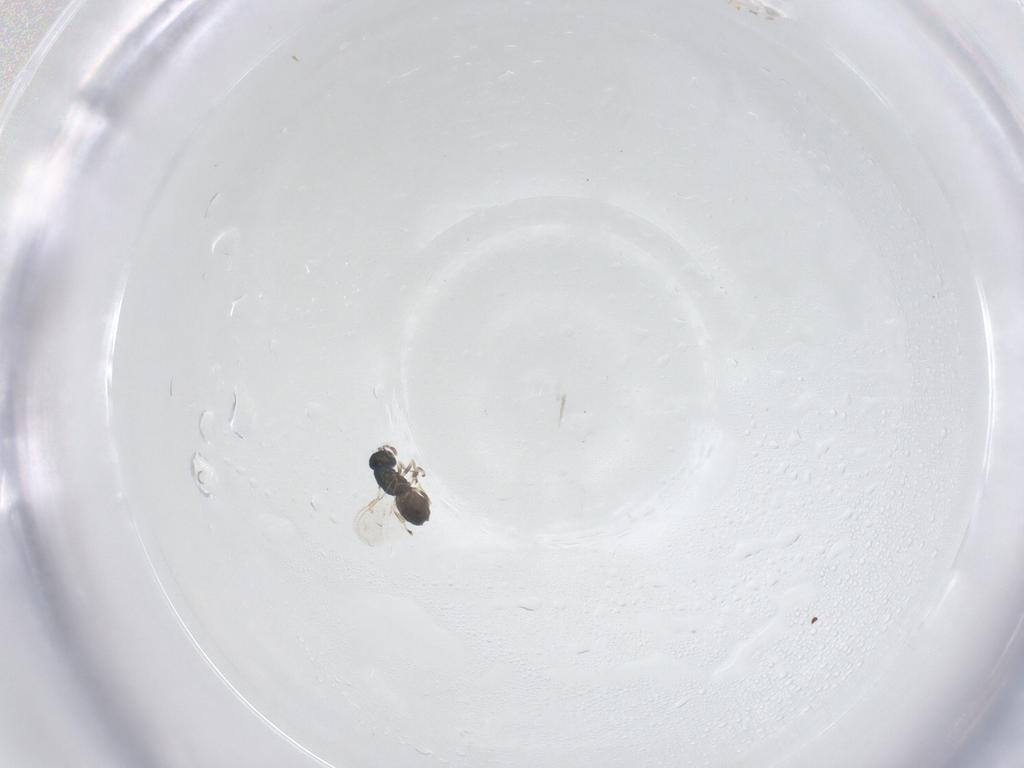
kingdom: Animalia
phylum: Arthropoda
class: Insecta
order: Hymenoptera
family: Eulophidae
